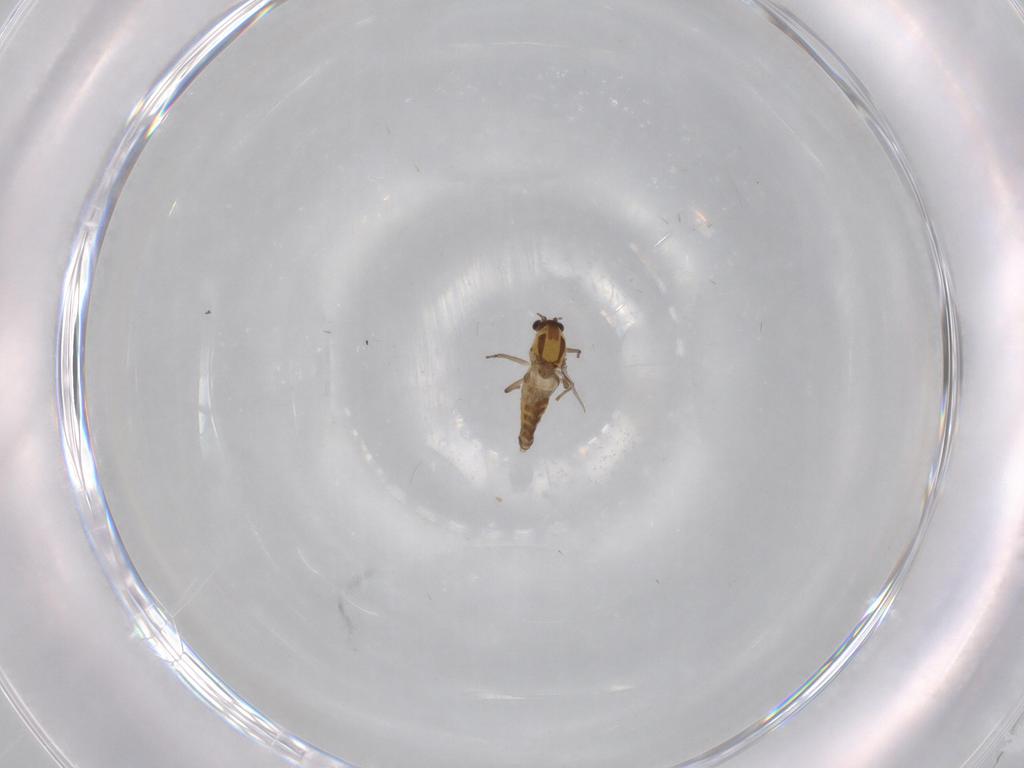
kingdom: Animalia
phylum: Arthropoda
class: Insecta
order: Diptera
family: Chironomidae
